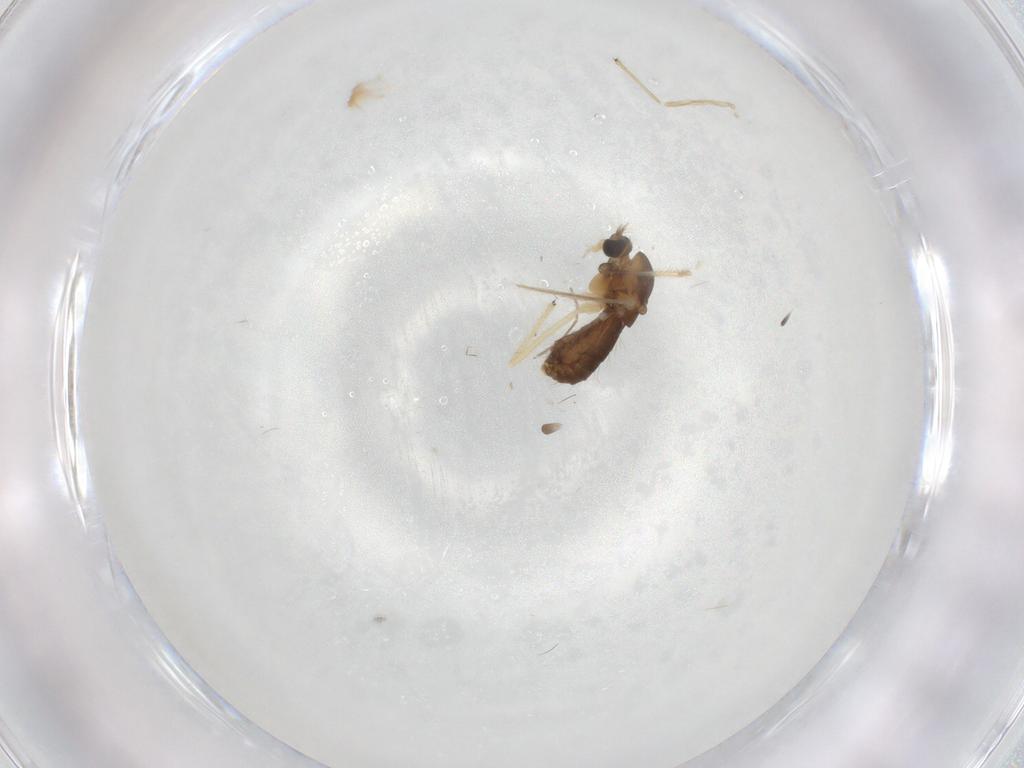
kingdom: Animalia
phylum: Arthropoda
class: Insecta
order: Diptera
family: Chironomidae
